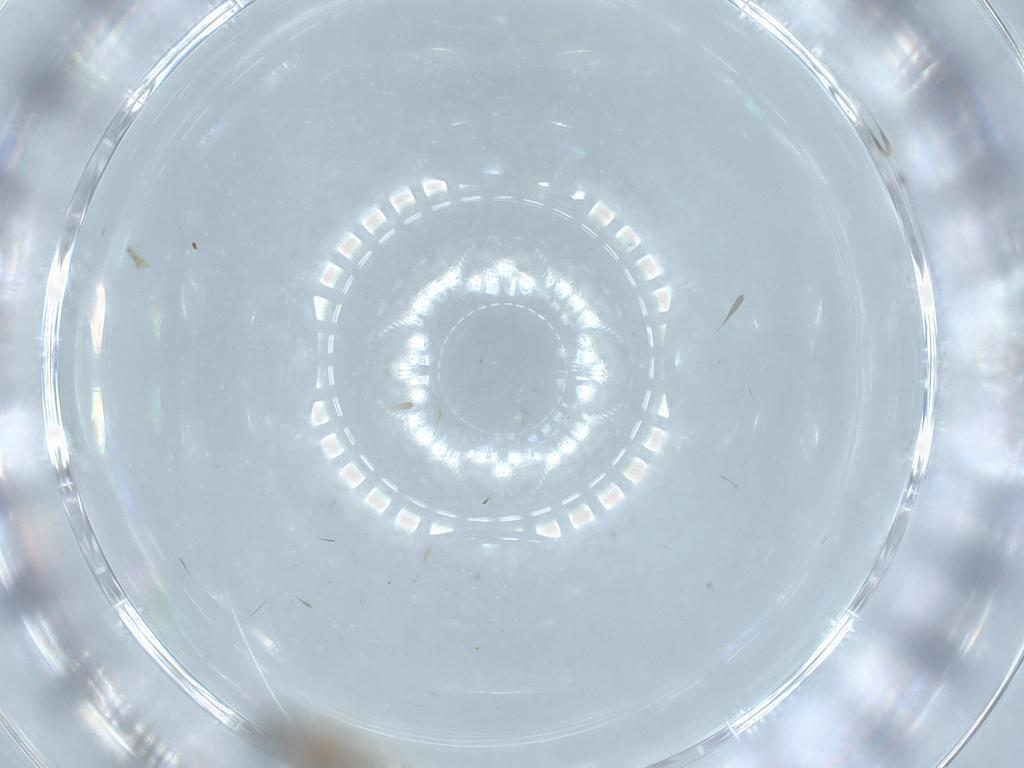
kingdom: Animalia
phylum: Arthropoda
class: Insecta
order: Diptera
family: Cecidomyiidae
